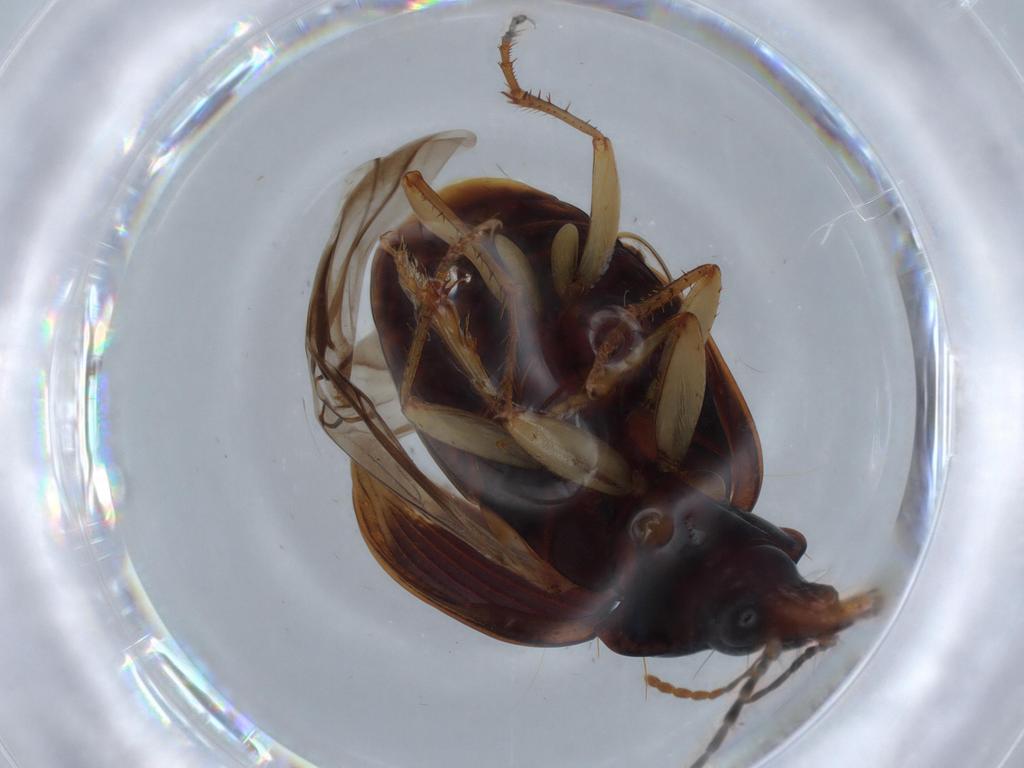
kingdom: Animalia
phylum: Arthropoda
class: Insecta
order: Coleoptera
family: Carabidae
